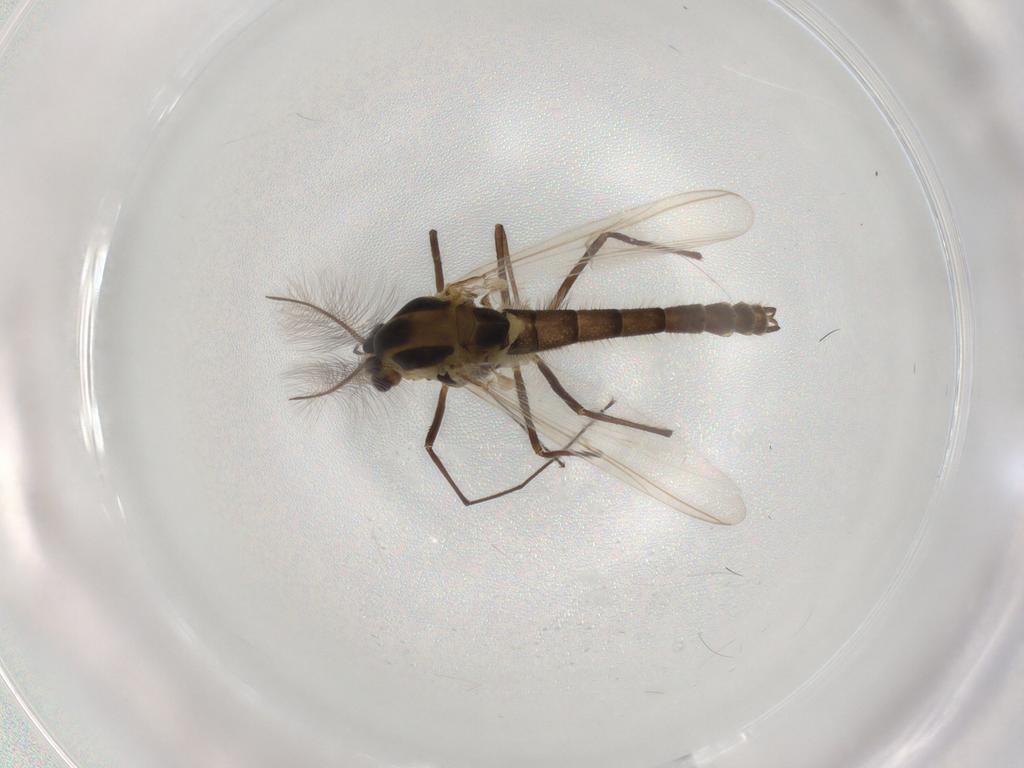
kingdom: Animalia
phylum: Arthropoda
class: Insecta
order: Diptera
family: Chironomidae
